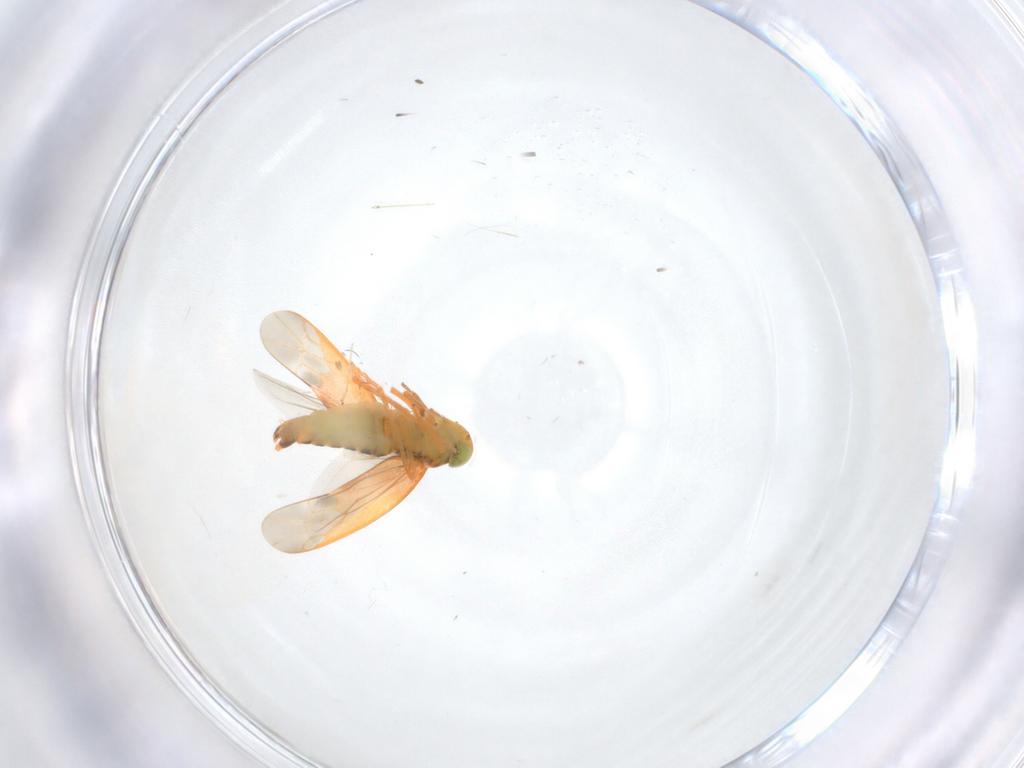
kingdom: Animalia
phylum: Arthropoda
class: Insecta
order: Hemiptera
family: Cicadellidae
